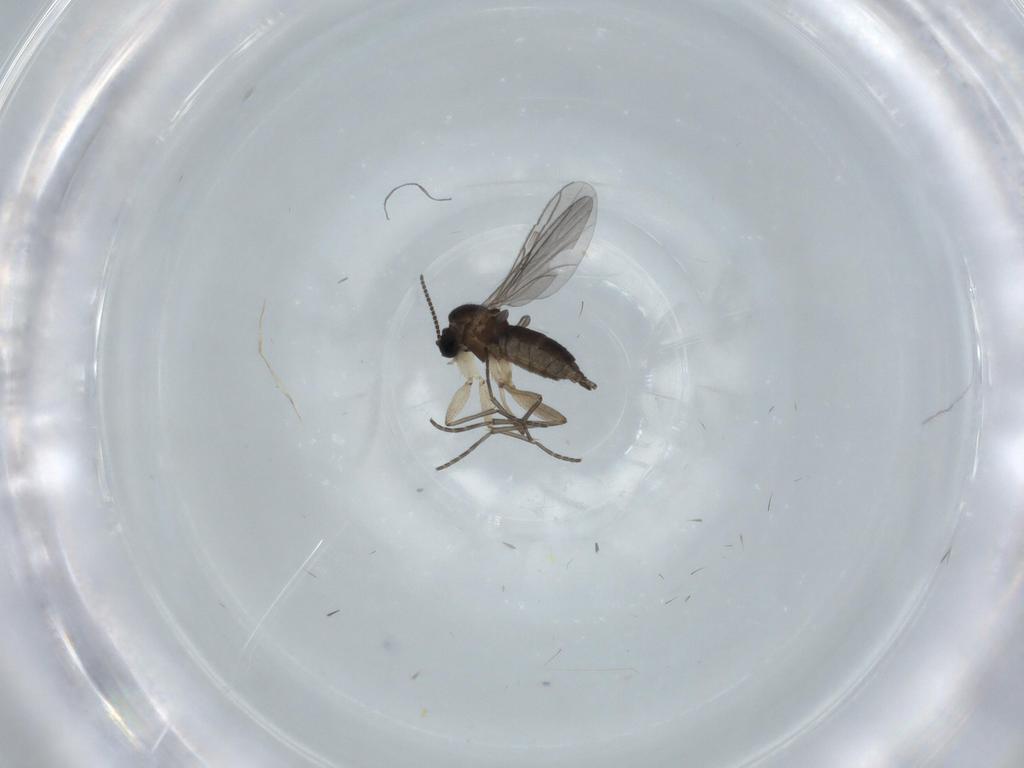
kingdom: Animalia
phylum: Arthropoda
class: Insecta
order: Diptera
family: Sciaridae
